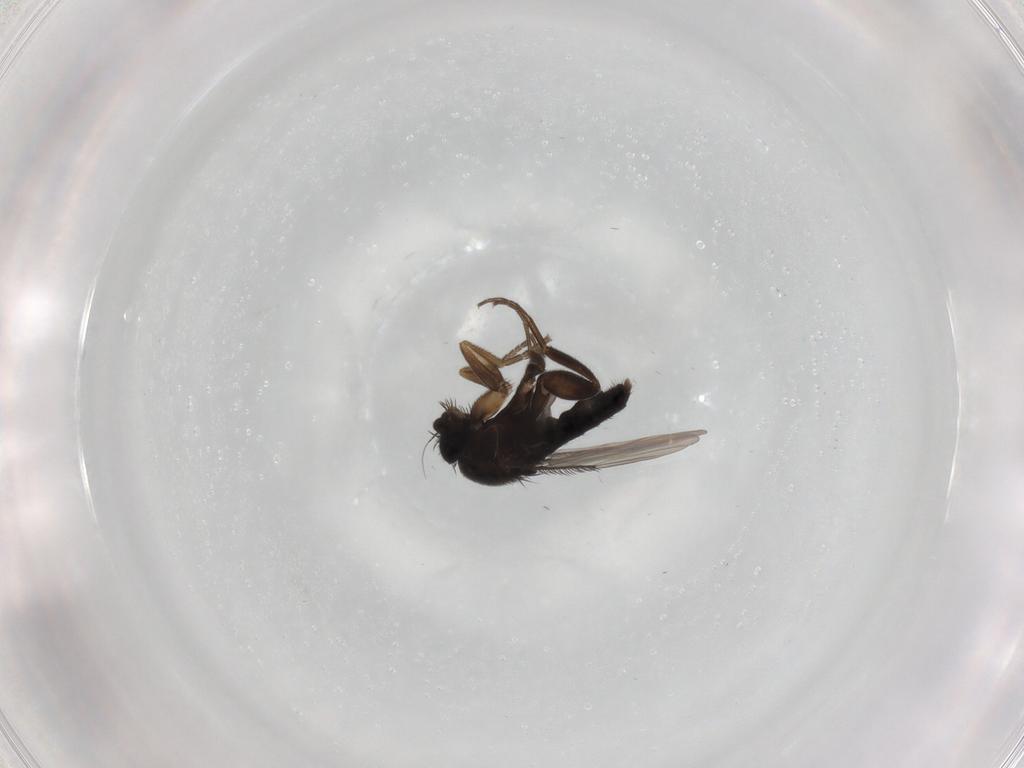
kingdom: Animalia
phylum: Arthropoda
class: Insecta
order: Diptera
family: Phoridae
